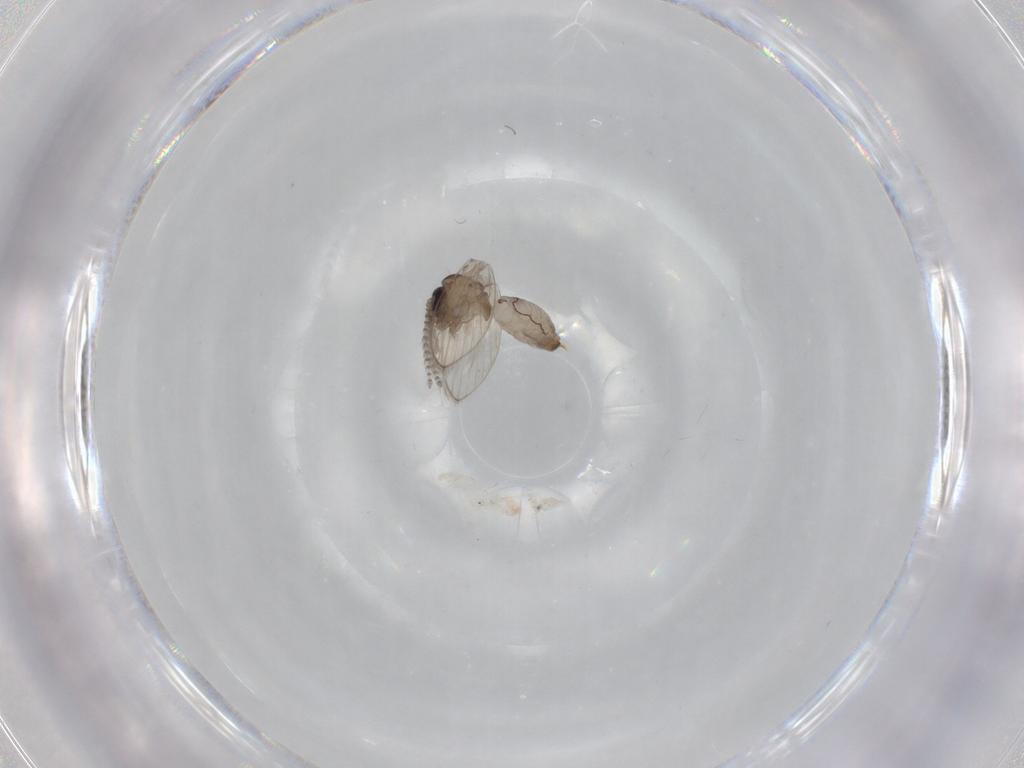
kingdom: Animalia
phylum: Arthropoda
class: Insecta
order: Diptera
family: Psychodidae
